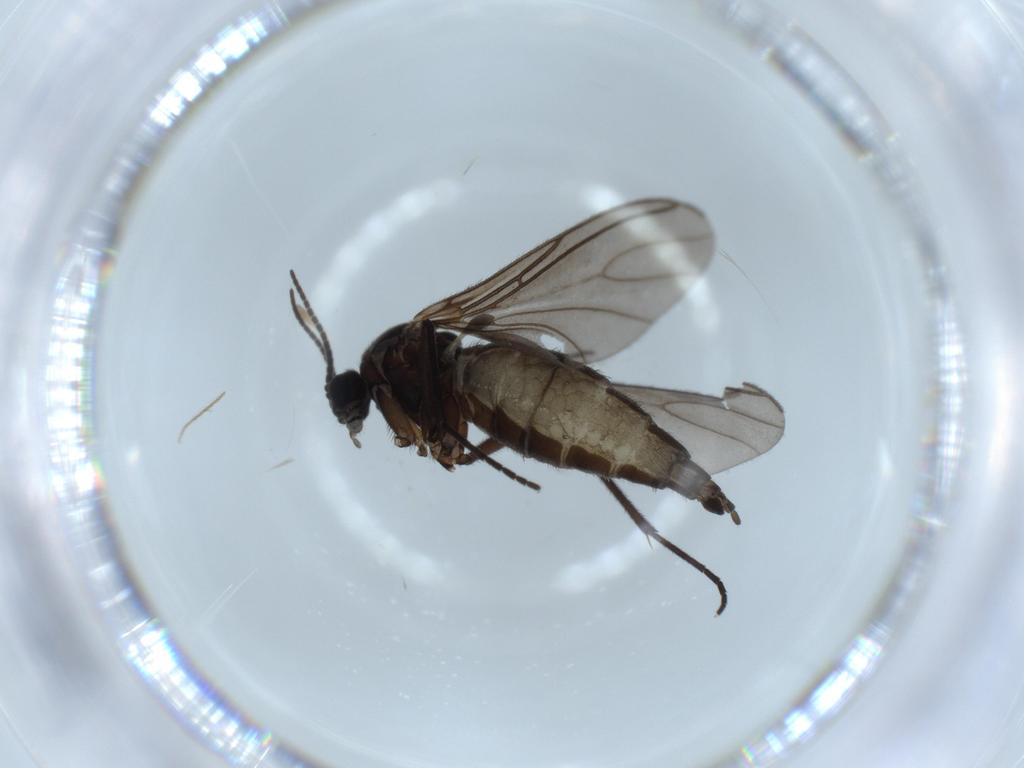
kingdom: Animalia
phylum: Arthropoda
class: Insecta
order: Diptera
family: Sciaridae
